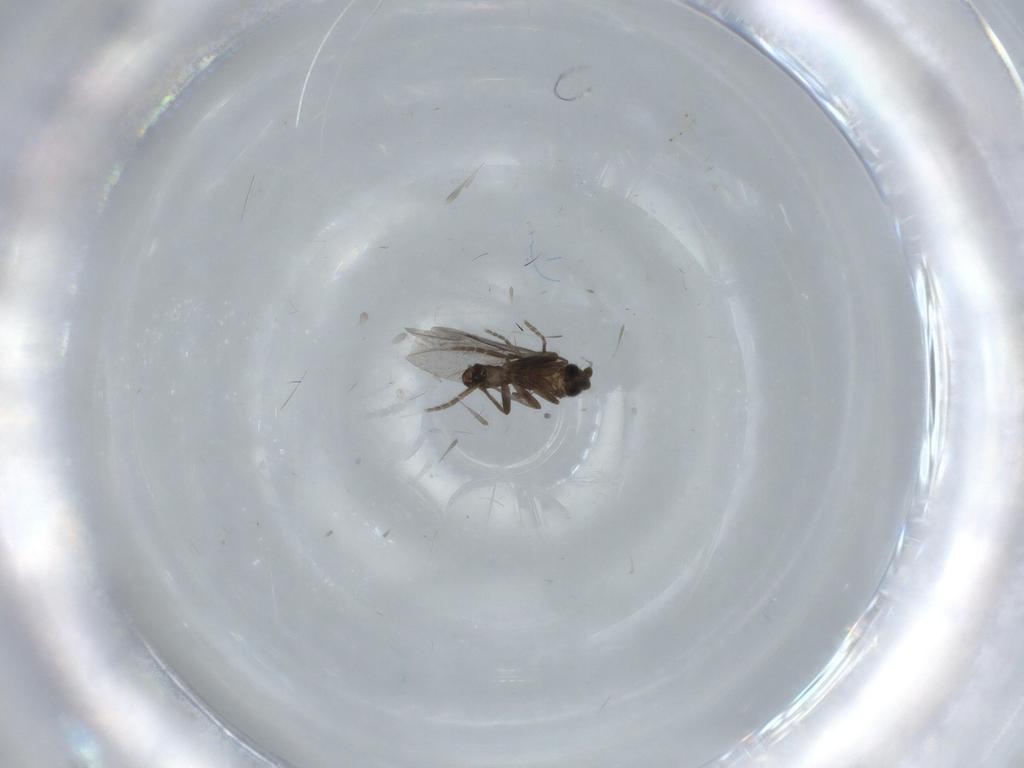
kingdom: Animalia
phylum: Arthropoda
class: Insecta
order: Diptera
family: Phoridae
